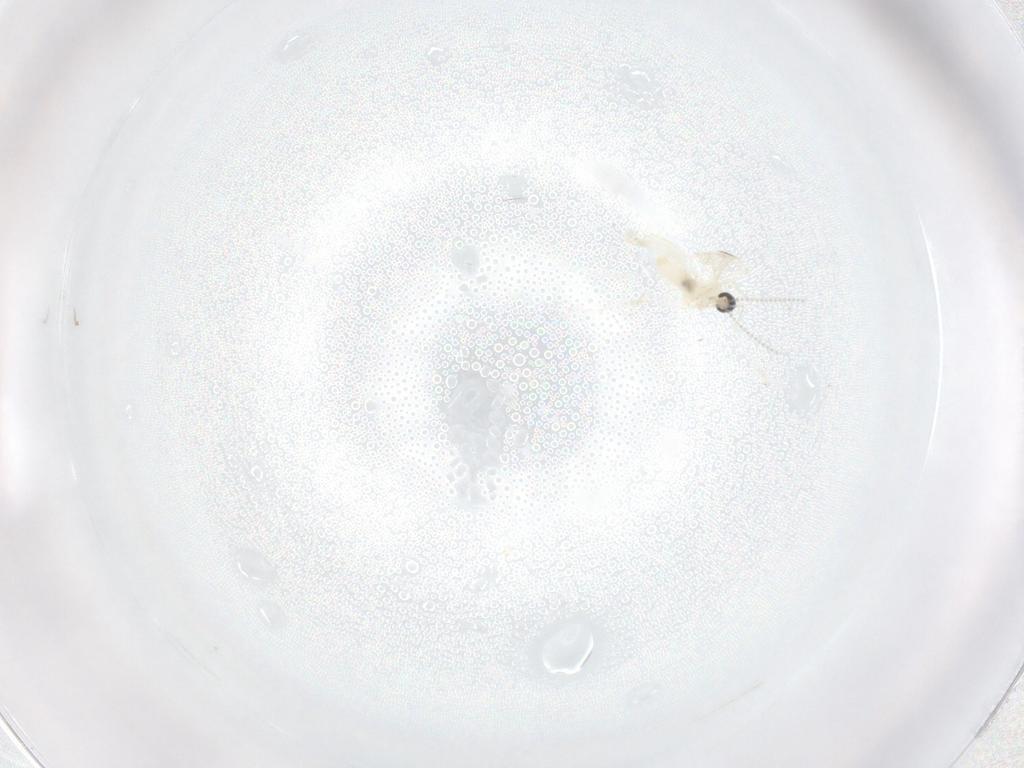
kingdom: Animalia
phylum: Arthropoda
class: Insecta
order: Diptera
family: Cecidomyiidae
